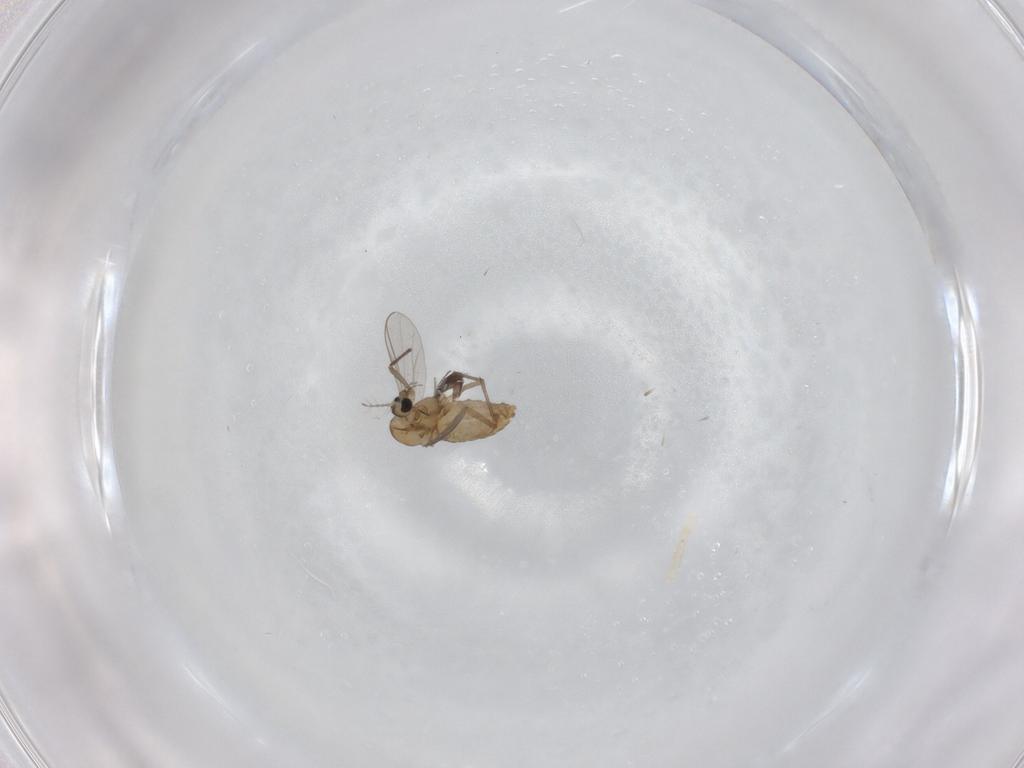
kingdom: Animalia
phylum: Arthropoda
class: Insecta
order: Diptera
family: Chironomidae
